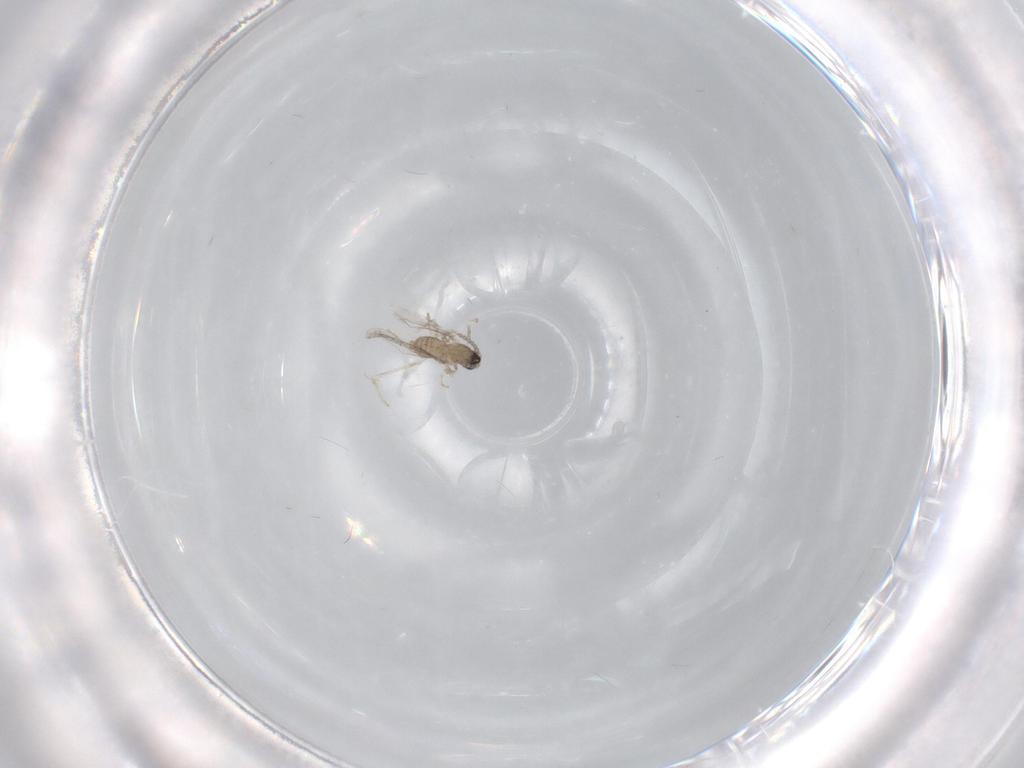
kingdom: Animalia
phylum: Arthropoda
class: Insecta
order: Diptera
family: Cecidomyiidae
